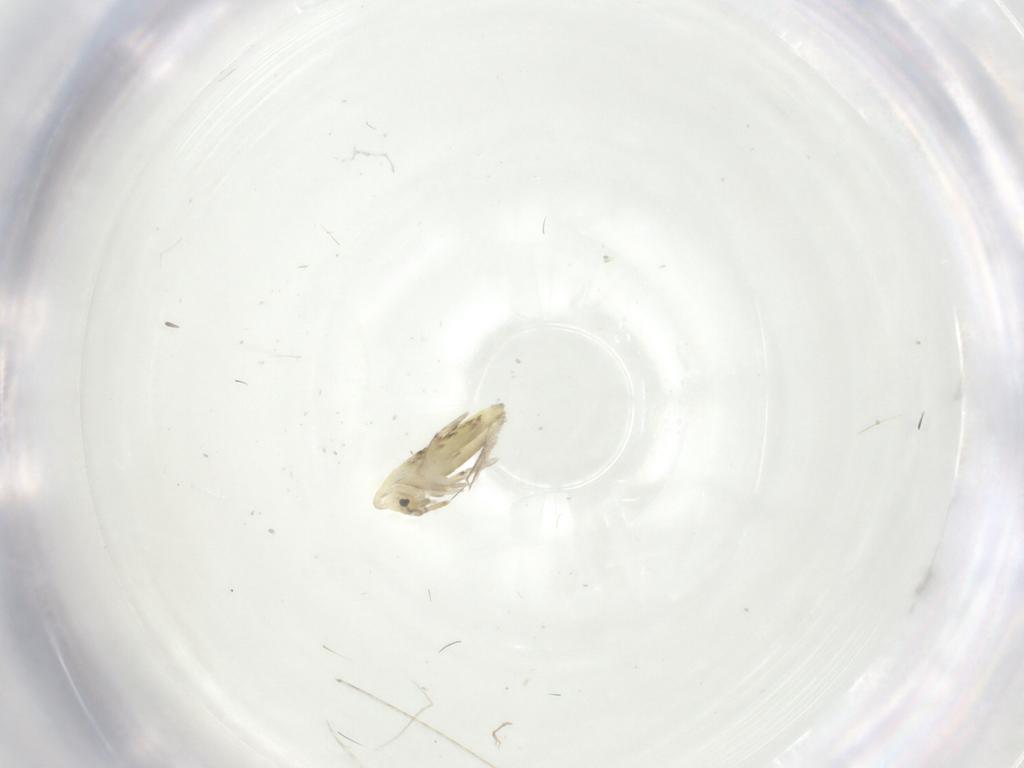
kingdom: Animalia
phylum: Arthropoda
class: Collembola
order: Entomobryomorpha
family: Entomobryidae
